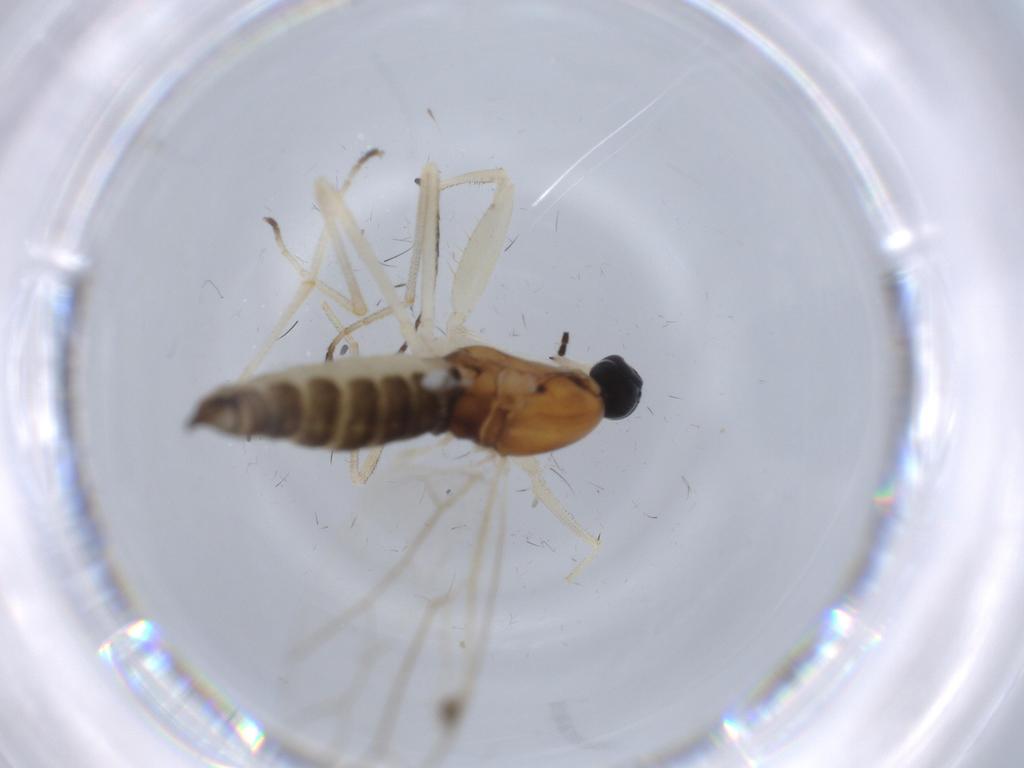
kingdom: Animalia
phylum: Arthropoda
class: Insecta
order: Diptera
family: Empididae
